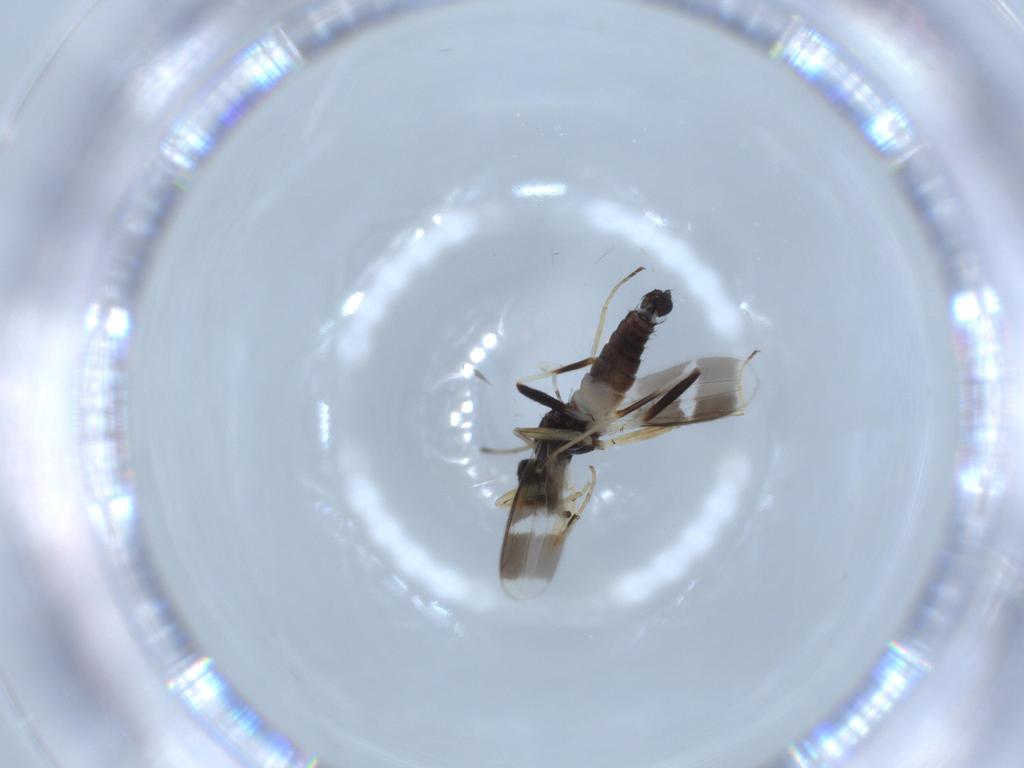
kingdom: Animalia
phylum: Arthropoda
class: Insecta
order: Diptera
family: Sciaridae
